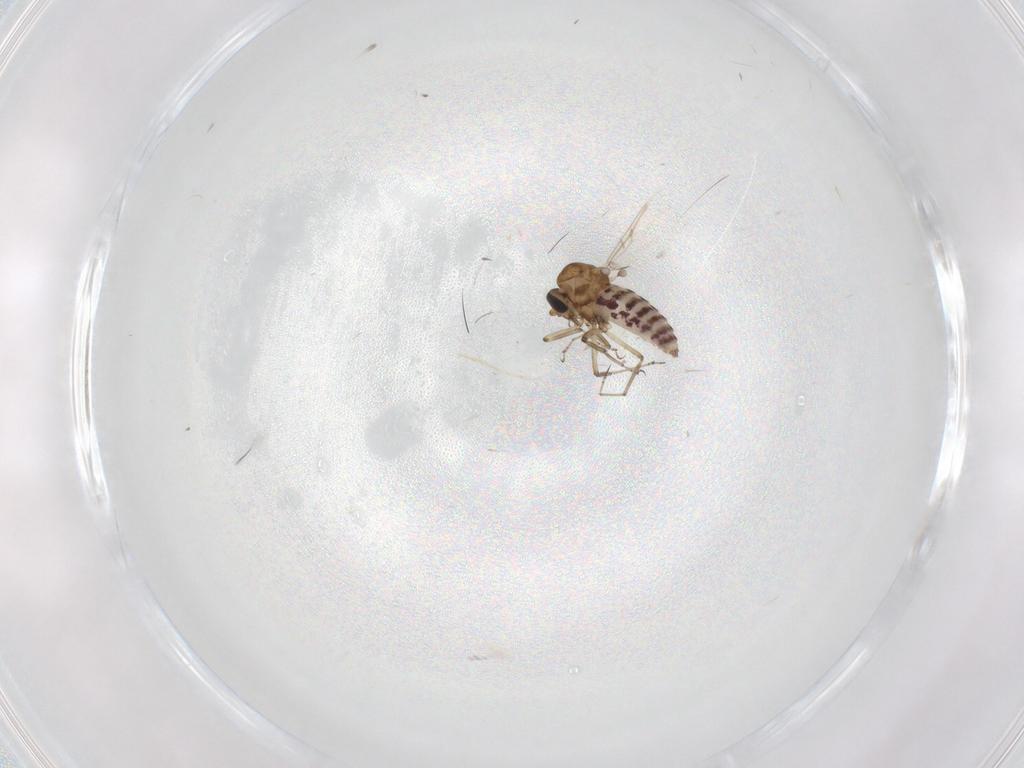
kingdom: Animalia
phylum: Arthropoda
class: Insecta
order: Diptera
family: Ceratopogonidae
